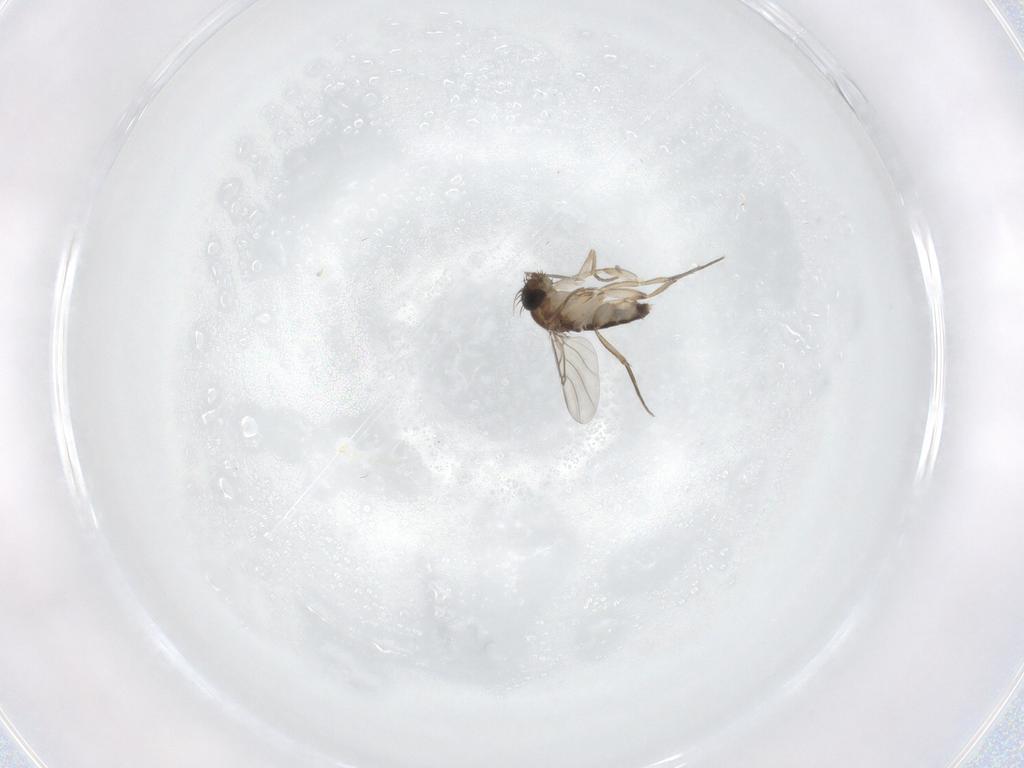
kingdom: Animalia
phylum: Arthropoda
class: Insecta
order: Diptera
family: Phoridae
